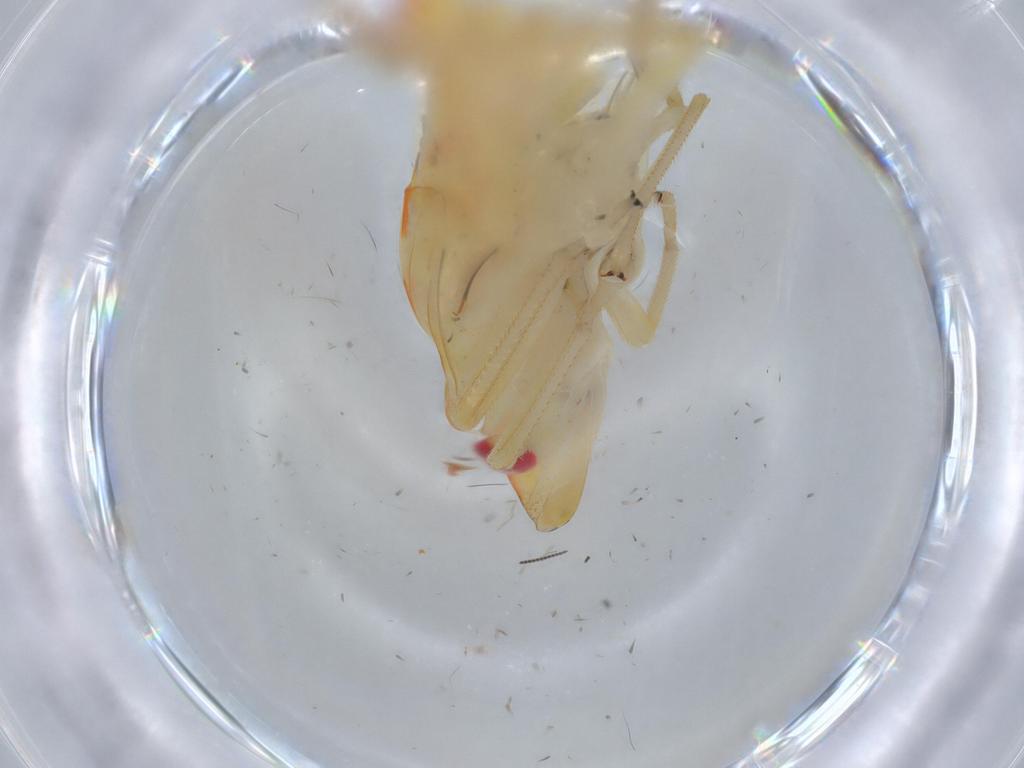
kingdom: Animalia
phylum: Arthropoda
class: Insecta
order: Hemiptera
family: Tropiduchidae
